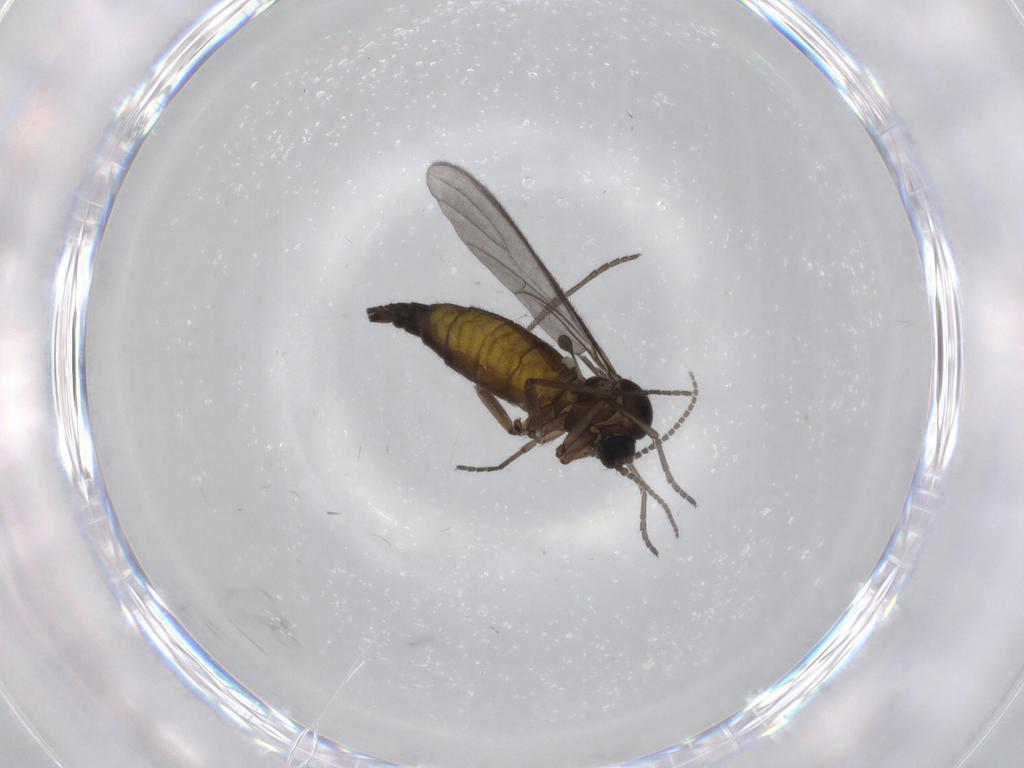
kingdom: Animalia
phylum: Arthropoda
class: Insecta
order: Diptera
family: Sciaridae
